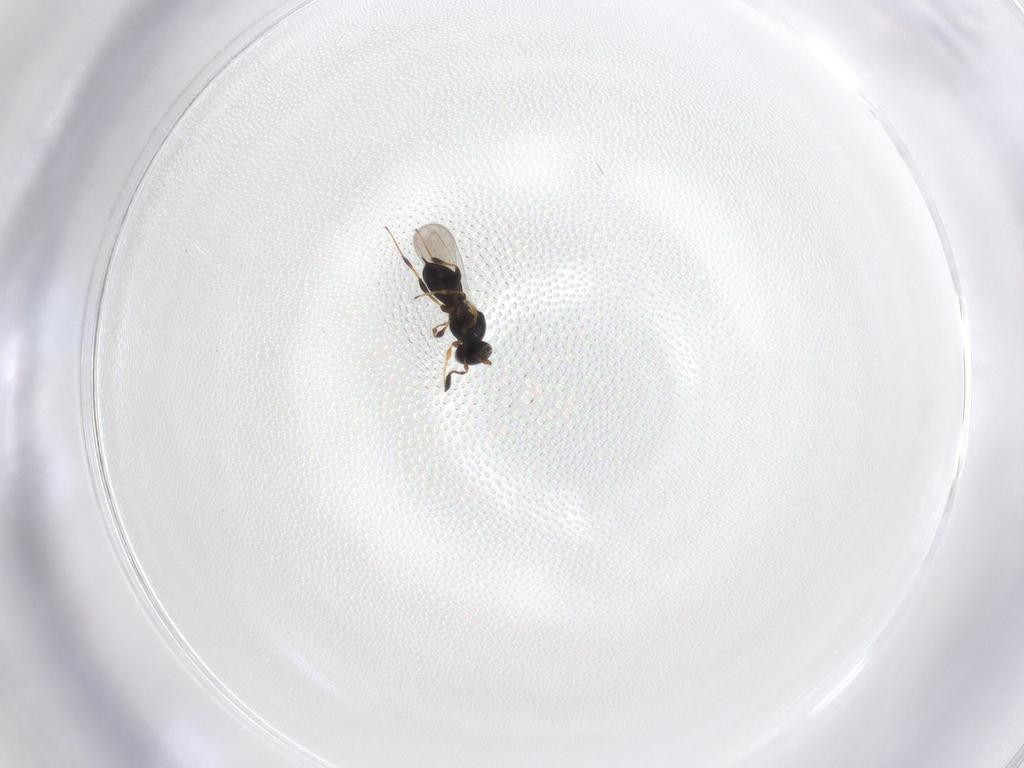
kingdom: Animalia
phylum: Arthropoda
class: Insecta
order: Hymenoptera
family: Platygastridae
